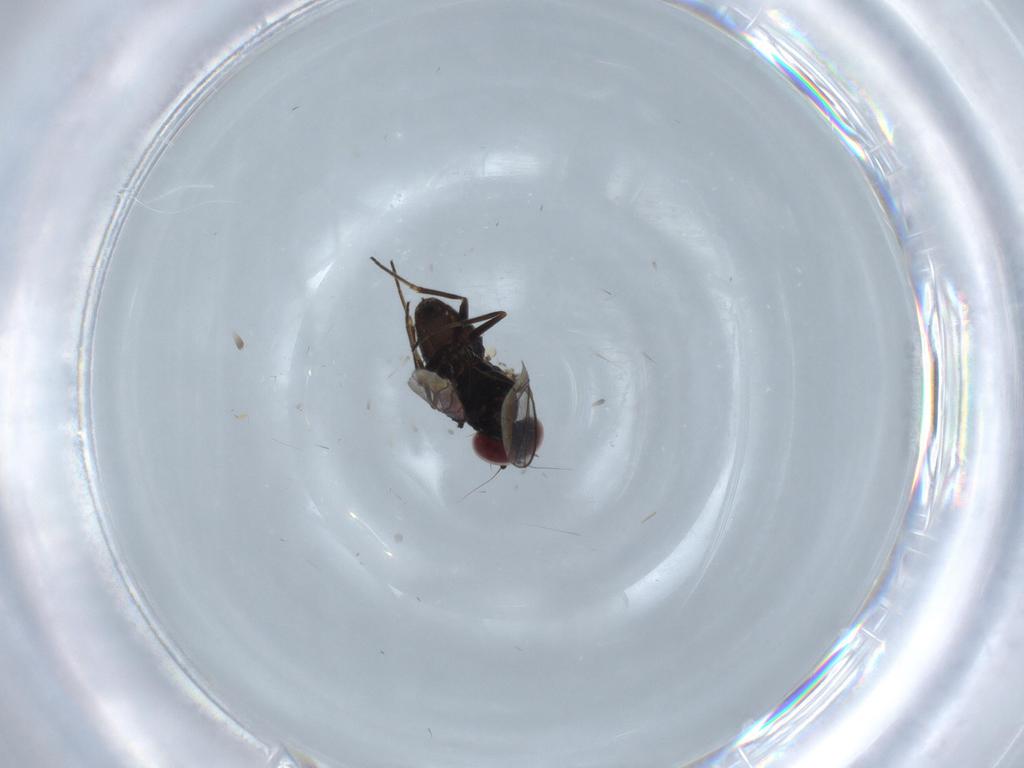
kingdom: Animalia
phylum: Arthropoda
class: Insecta
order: Diptera
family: Dolichopodidae
